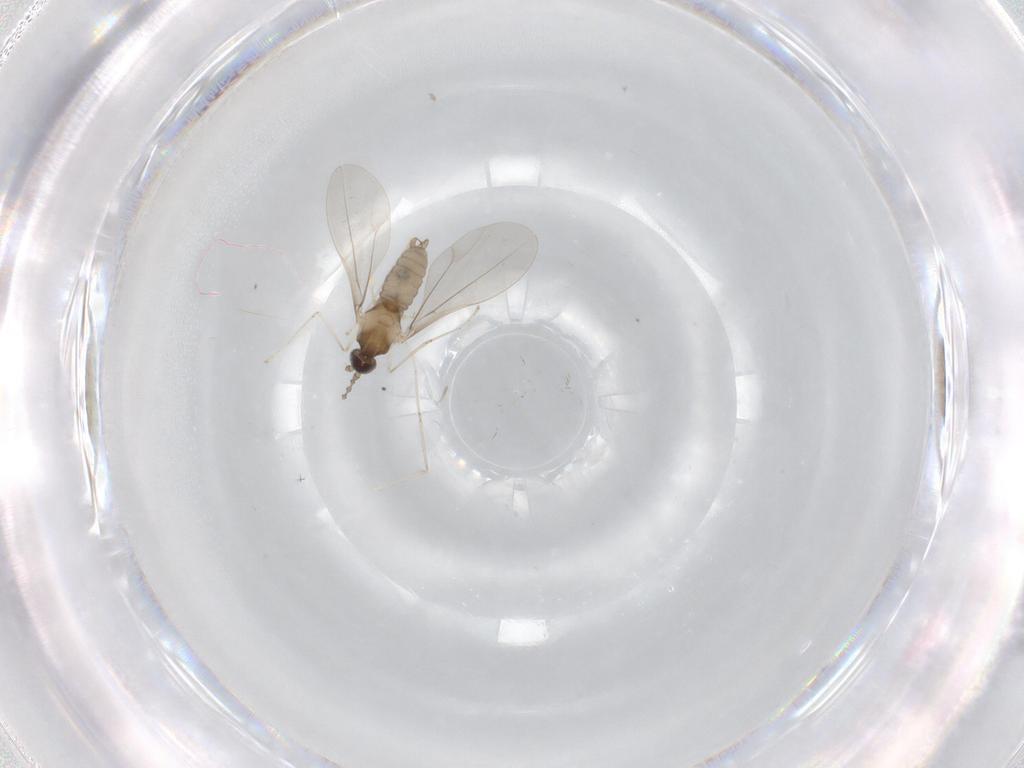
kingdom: Animalia
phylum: Arthropoda
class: Insecta
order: Diptera
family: Cecidomyiidae
